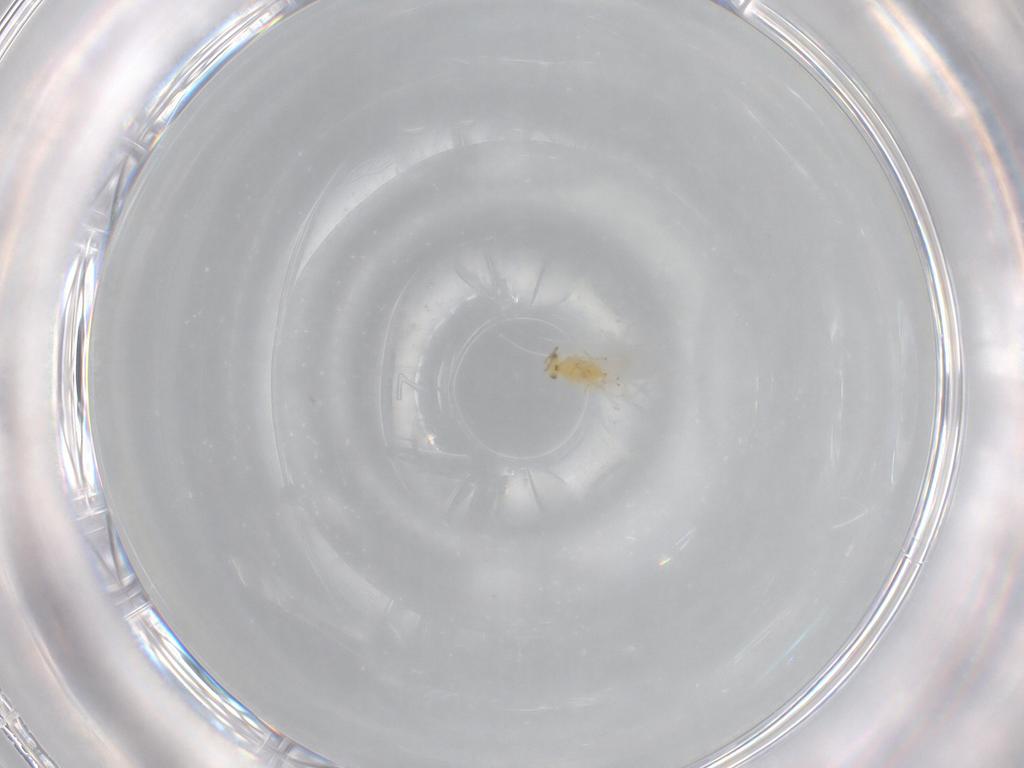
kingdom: Animalia
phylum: Arthropoda
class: Insecta
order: Hymenoptera
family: Aphelinidae
